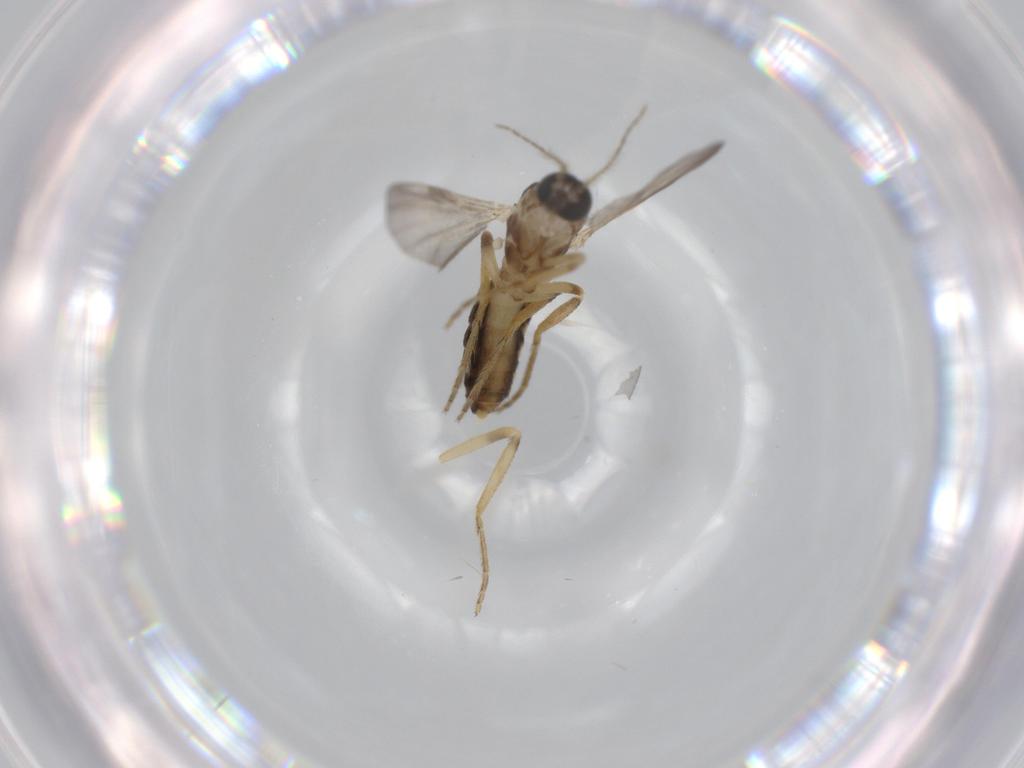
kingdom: Animalia
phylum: Arthropoda
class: Insecta
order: Diptera
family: Ceratopogonidae
